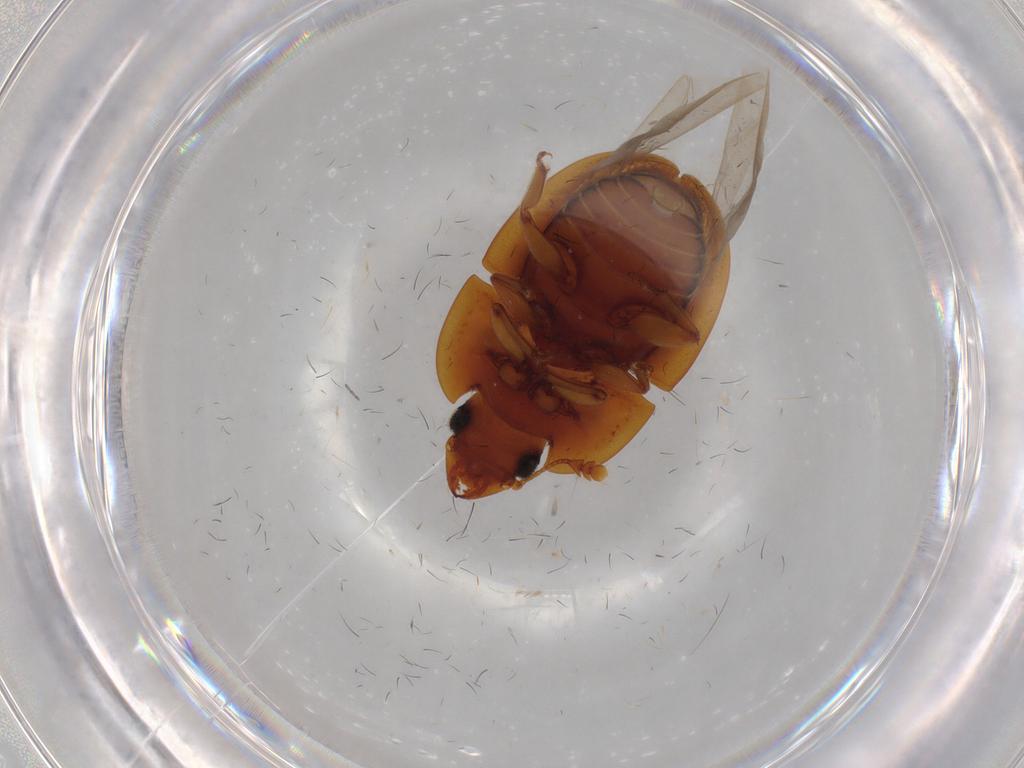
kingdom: Animalia
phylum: Arthropoda
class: Insecta
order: Coleoptera
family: Nitidulidae
